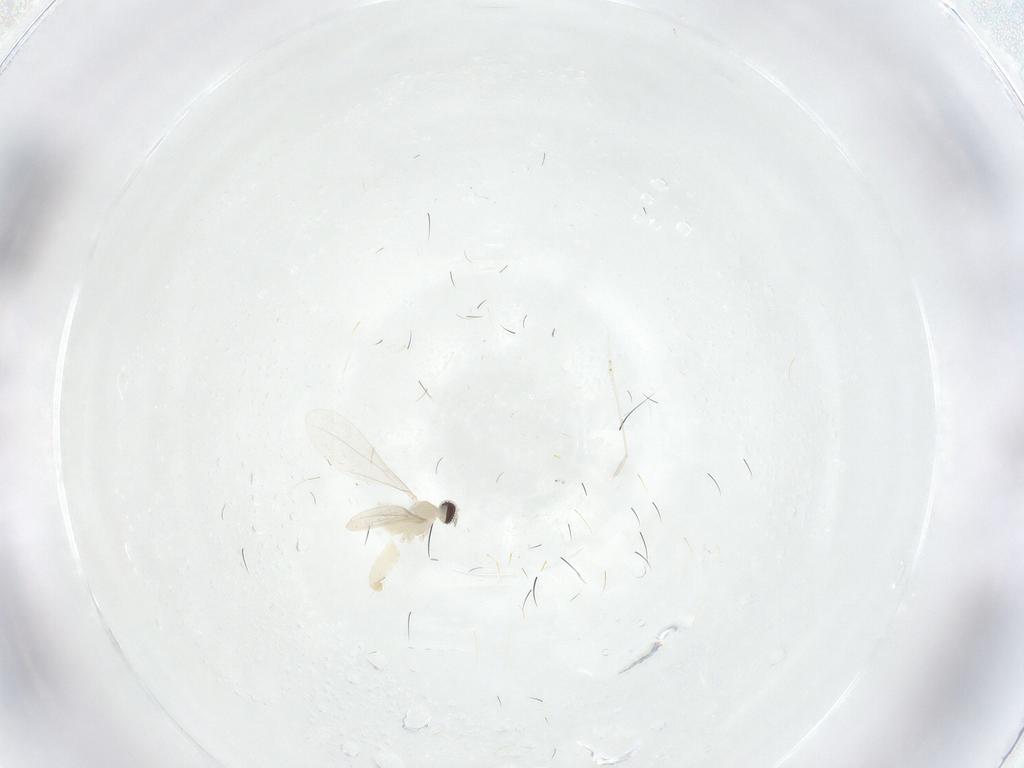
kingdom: Animalia
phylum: Arthropoda
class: Insecta
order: Diptera
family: Cecidomyiidae
